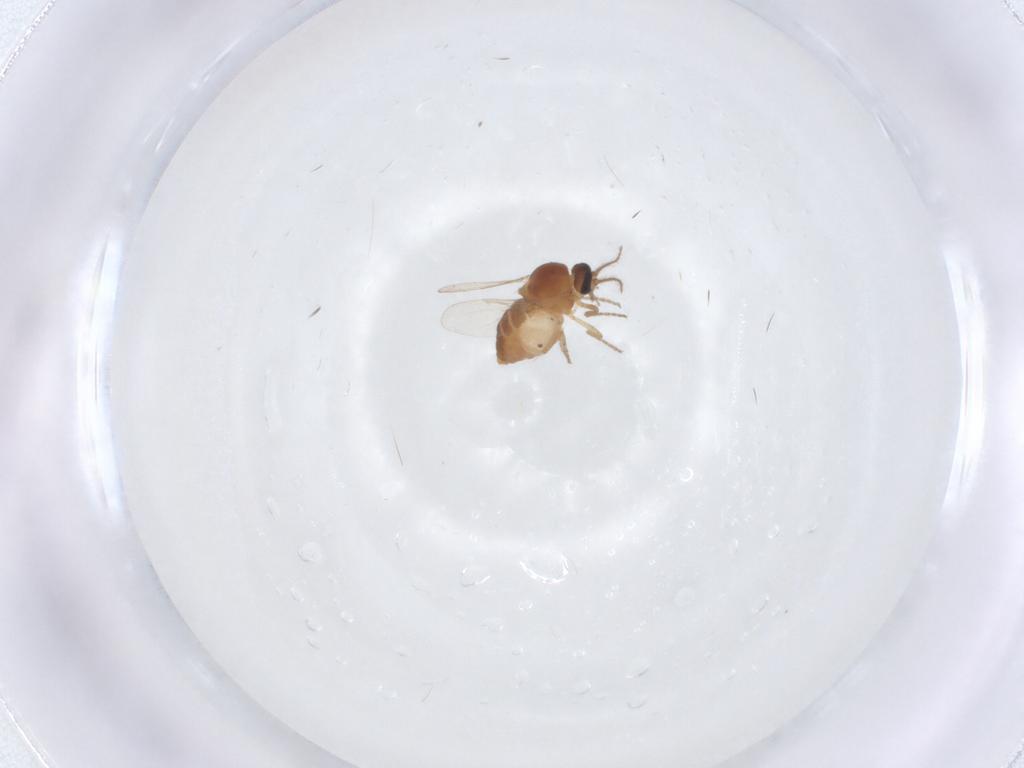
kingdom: Animalia
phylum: Arthropoda
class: Insecta
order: Diptera
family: Ceratopogonidae
